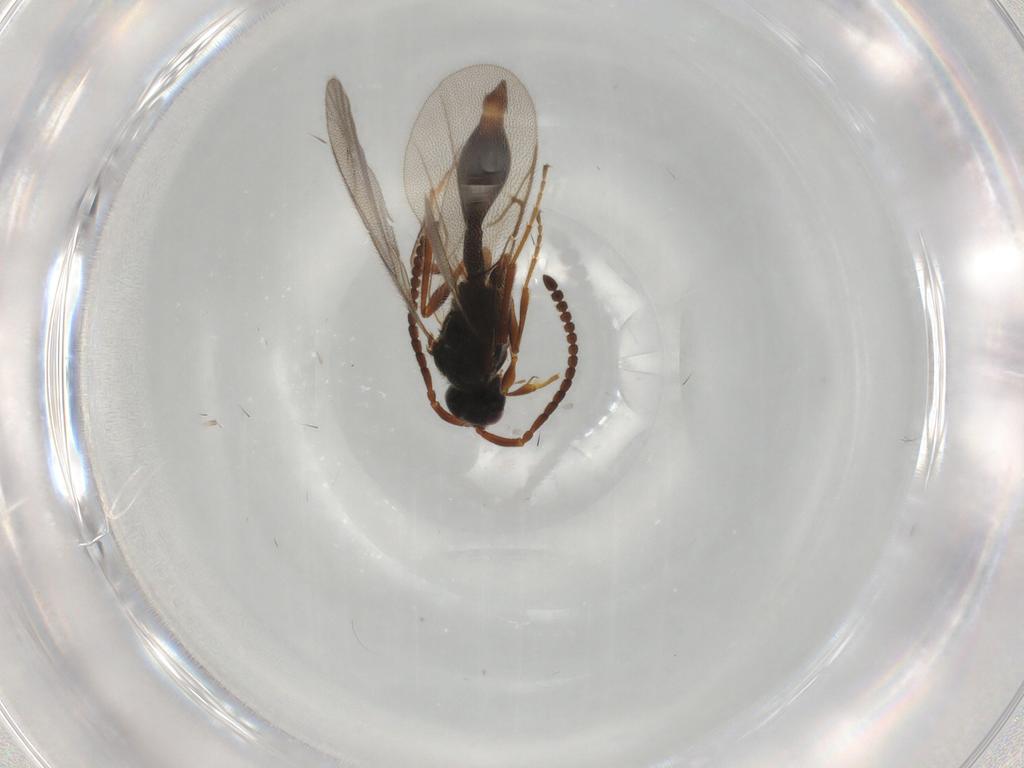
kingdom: Animalia
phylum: Arthropoda
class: Insecta
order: Hymenoptera
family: Diapriidae
